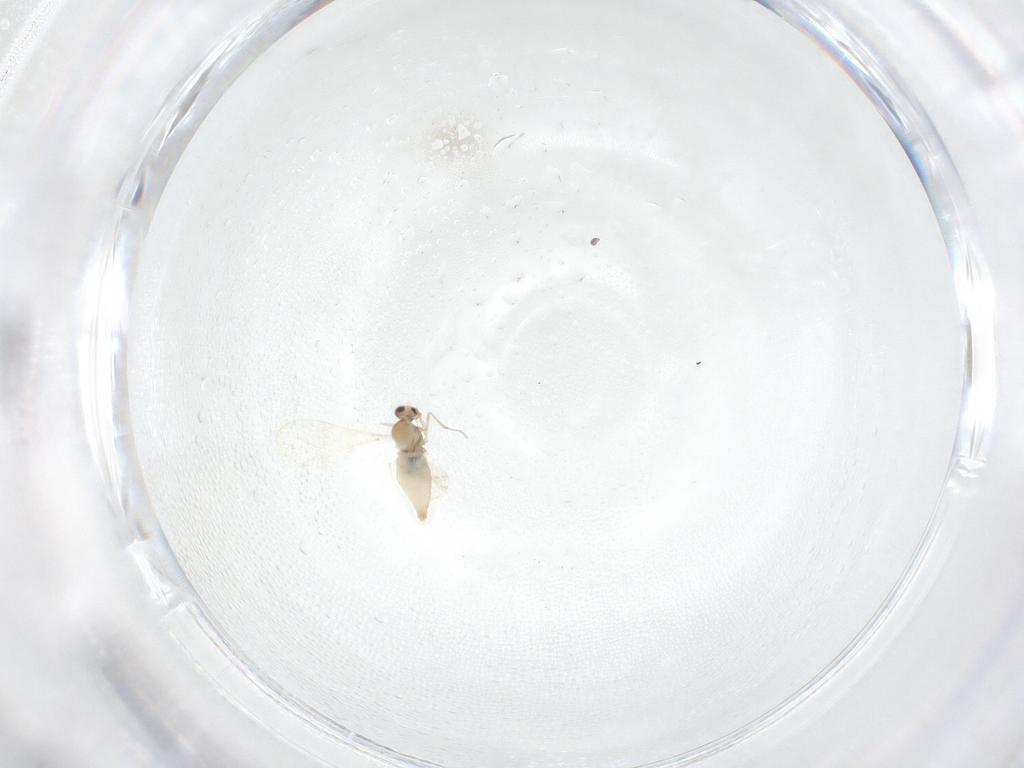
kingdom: Animalia
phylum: Arthropoda
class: Insecta
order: Diptera
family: Cecidomyiidae
